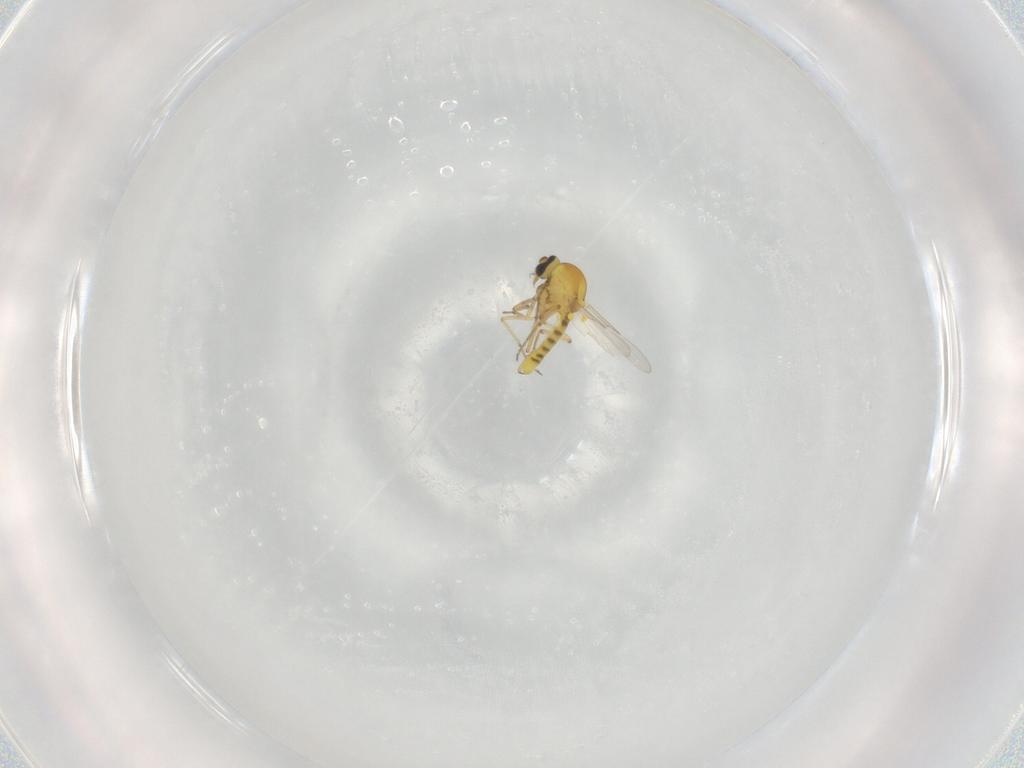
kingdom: Animalia
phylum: Arthropoda
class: Insecta
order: Diptera
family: Ceratopogonidae
